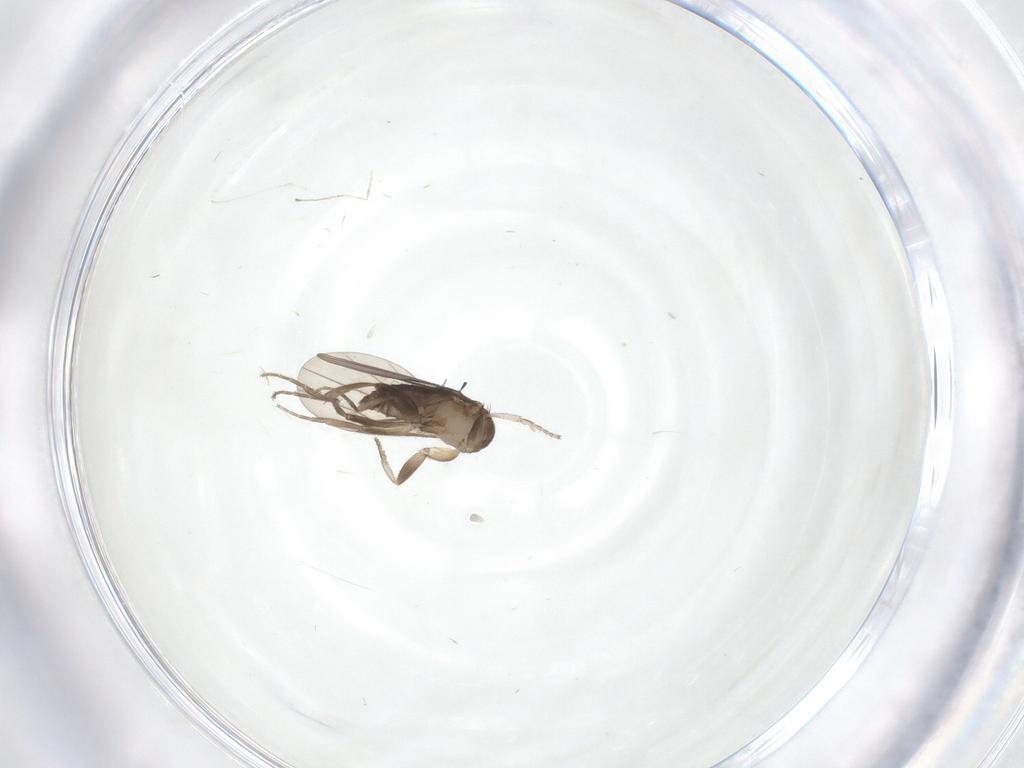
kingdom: Animalia
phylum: Arthropoda
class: Insecta
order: Diptera
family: Phoridae
